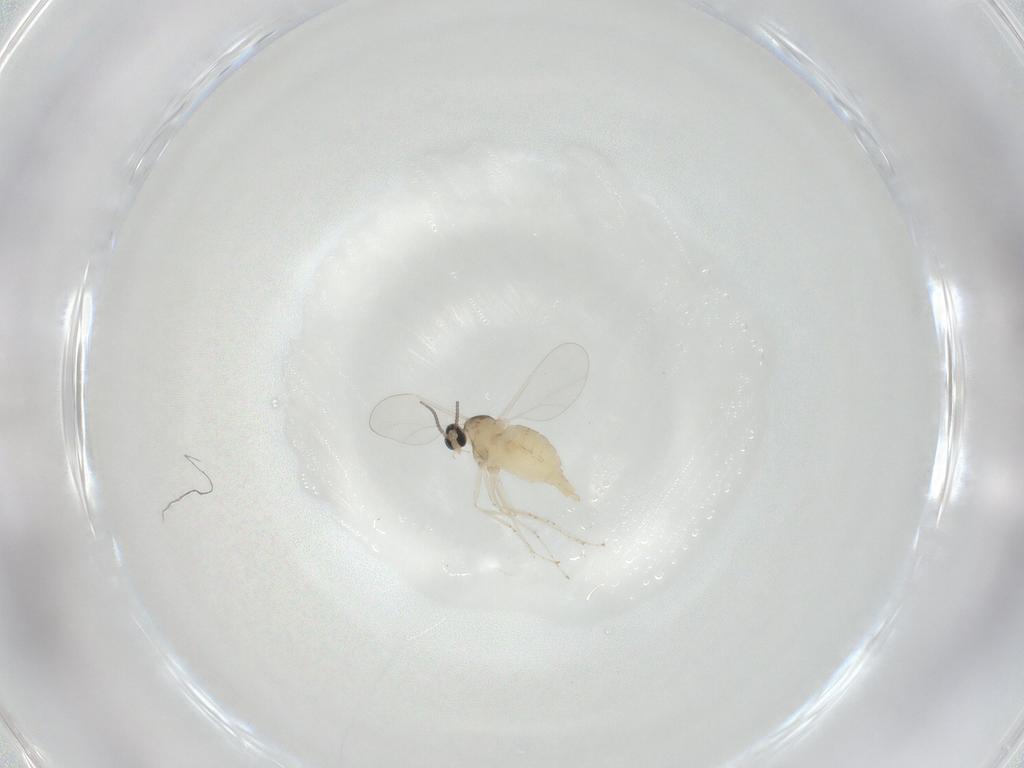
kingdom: Animalia
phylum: Arthropoda
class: Insecta
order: Diptera
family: Cecidomyiidae
